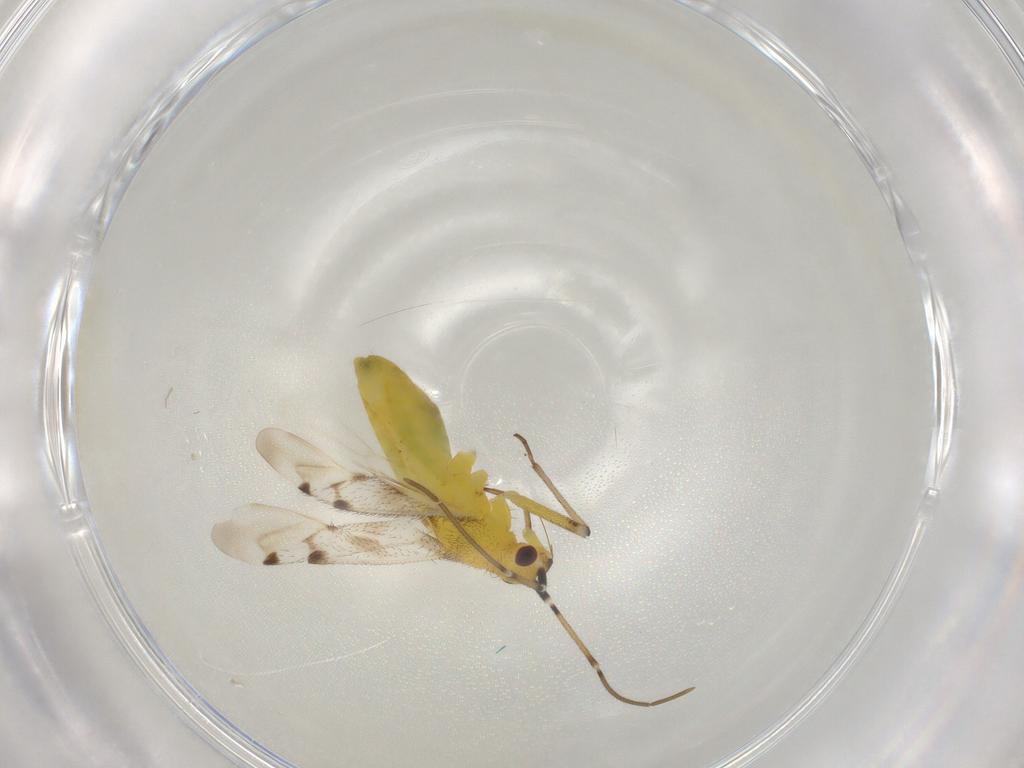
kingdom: Animalia
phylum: Arthropoda
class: Insecta
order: Hemiptera
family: Miridae
